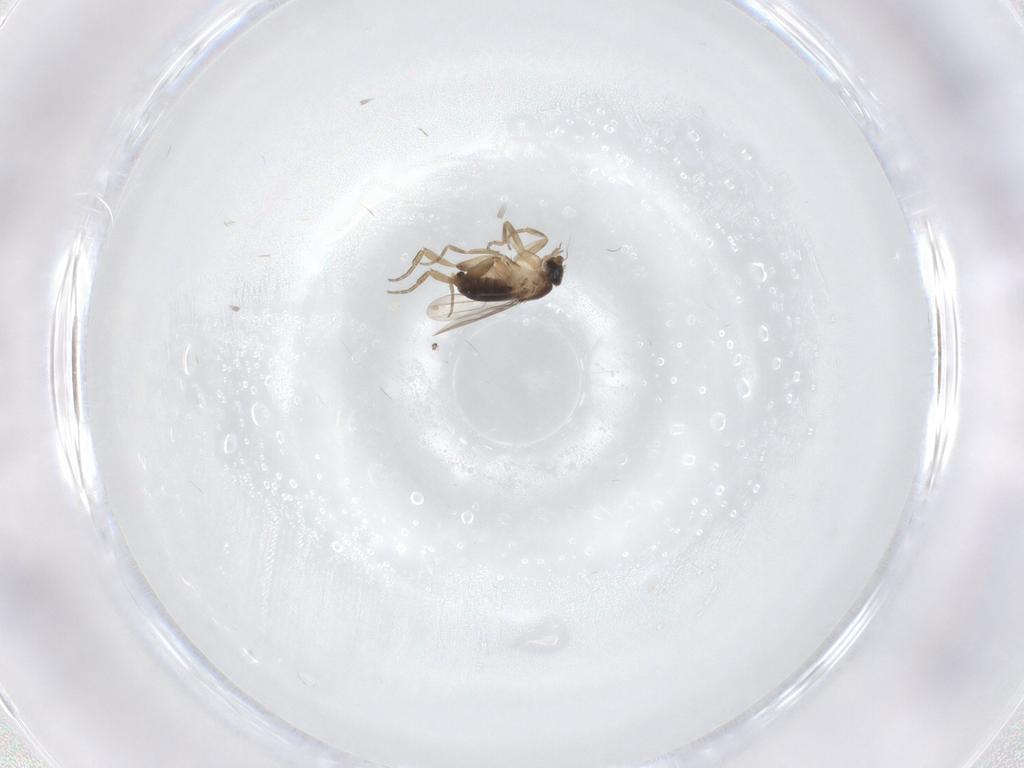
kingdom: Animalia
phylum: Arthropoda
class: Insecta
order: Diptera
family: Phoridae
